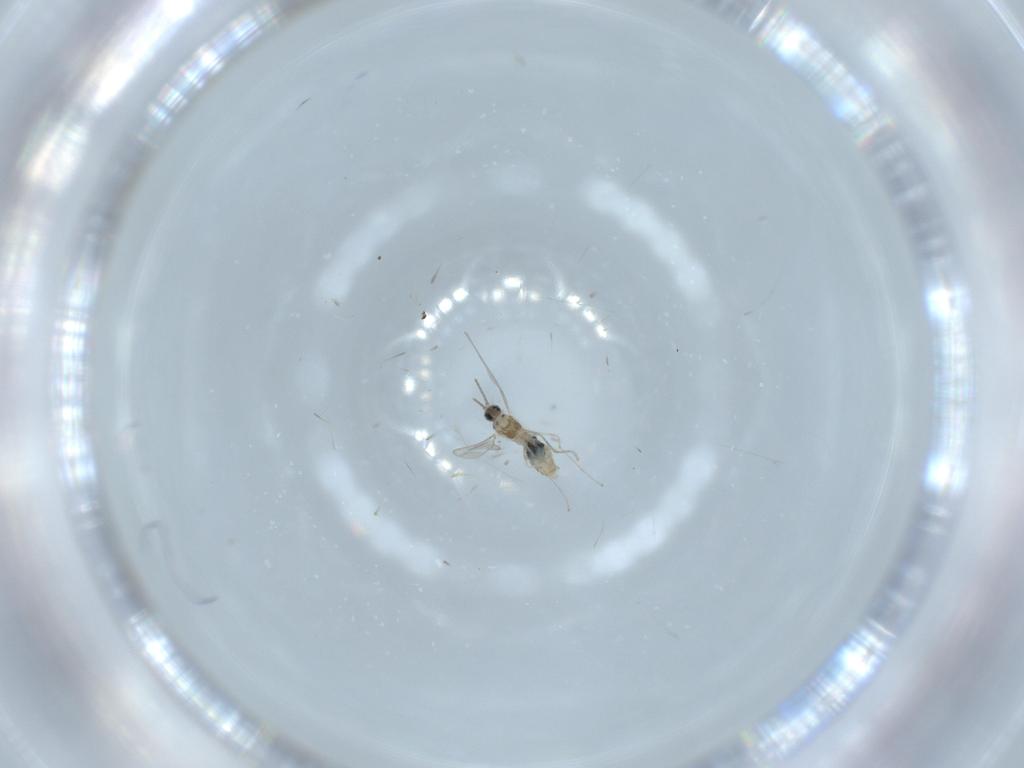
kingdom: Animalia
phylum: Arthropoda
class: Insecta
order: Diptera
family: Cecidomyiidae
